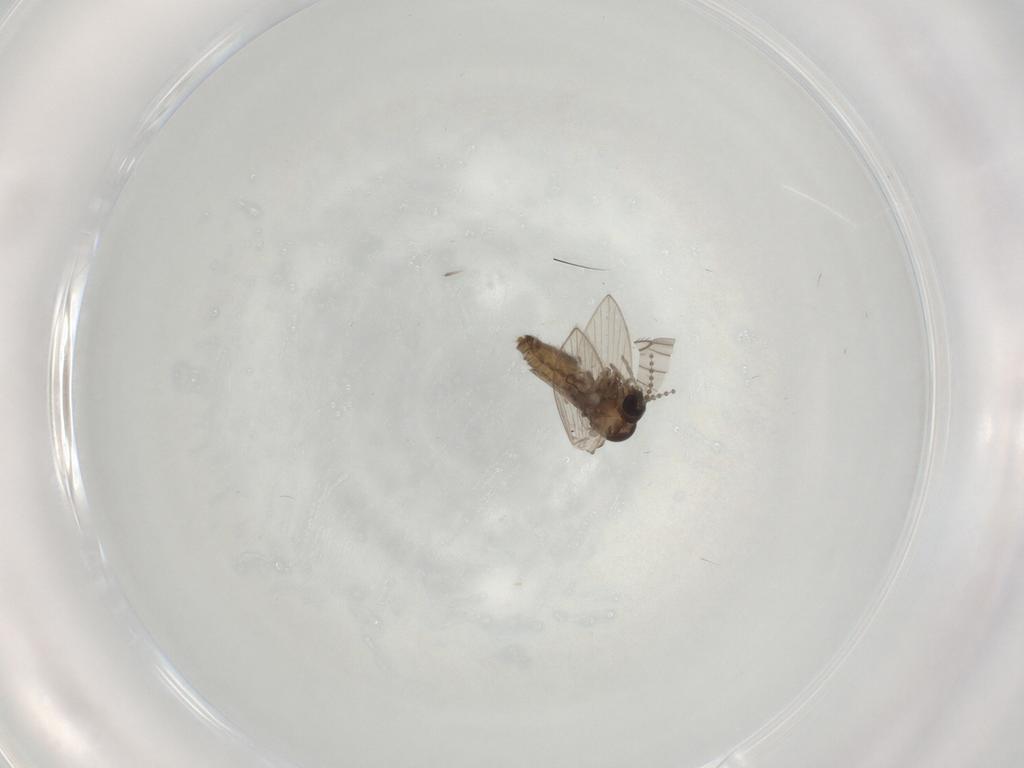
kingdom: Animalia
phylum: Arthropoda
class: Insecta
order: Diptera
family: Psychodidae
